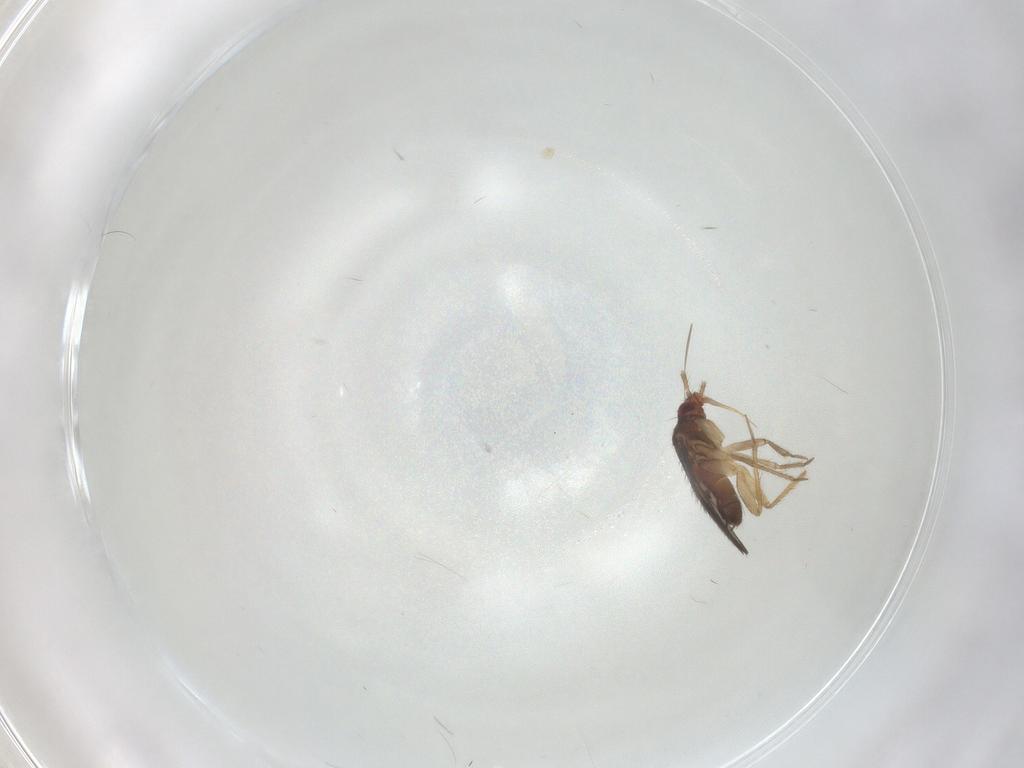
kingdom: Animalia
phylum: Arthropoda
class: Insecta
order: Hemiptera
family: Ceratocombidae
